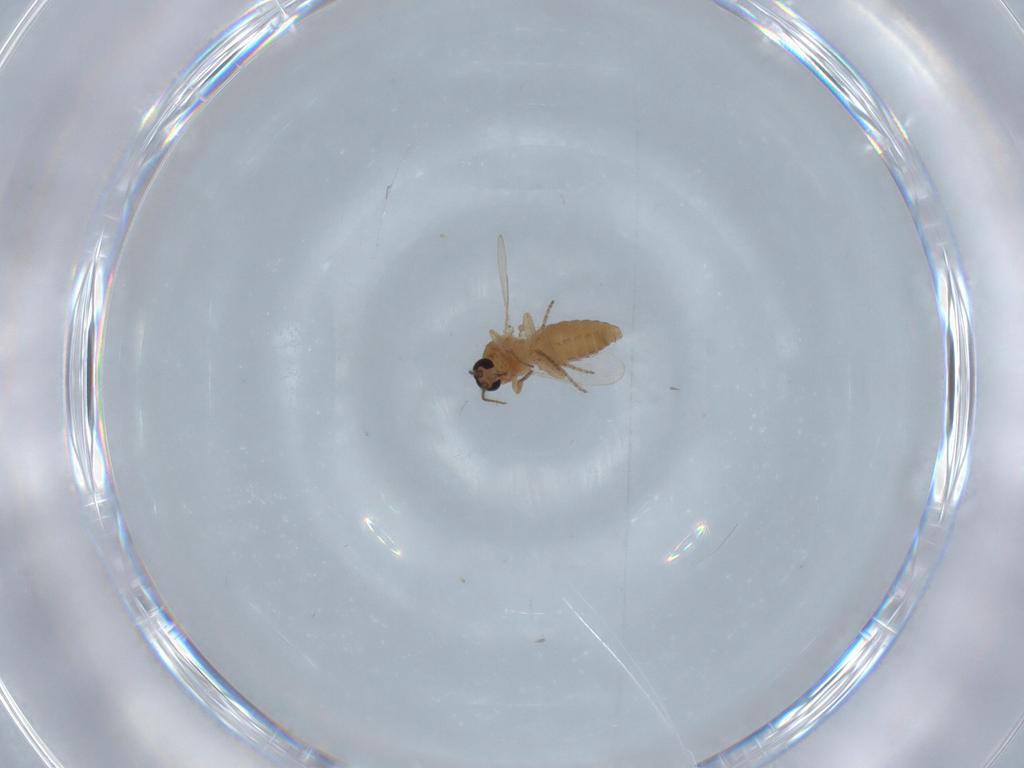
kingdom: Animalia
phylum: Arthropoda
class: Insecta
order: Diptera
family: Ceratopogonidae
